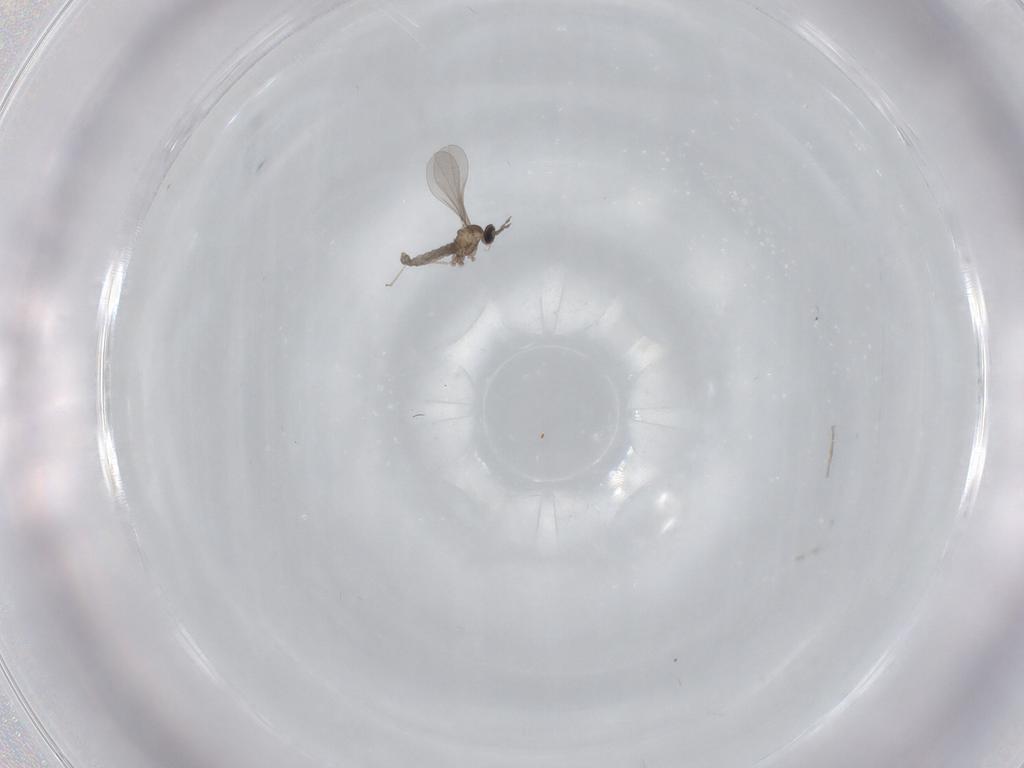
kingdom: Animalia
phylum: Arthropoda
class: Insecta
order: Diptera
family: Cecidomyiidae
